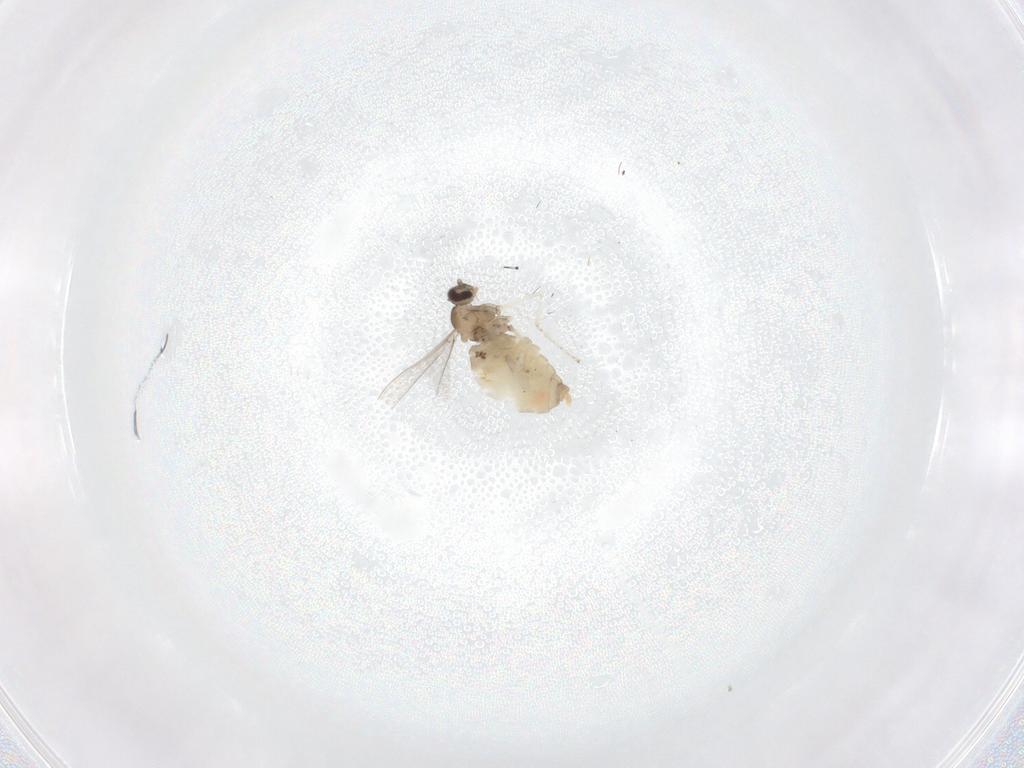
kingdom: Animalia
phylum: Arthropoda
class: Insecta
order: Diptera
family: Cecidomyiidae
